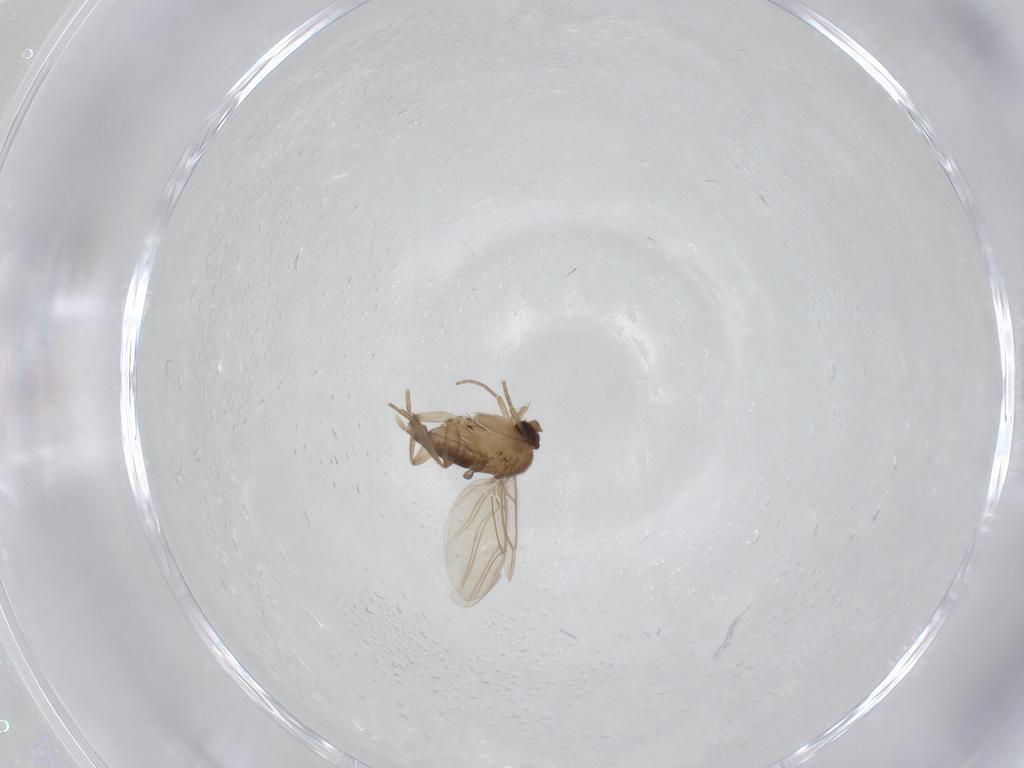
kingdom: Animalia
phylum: Arthropoda
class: Insecta
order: Diptera
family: Phoridae
